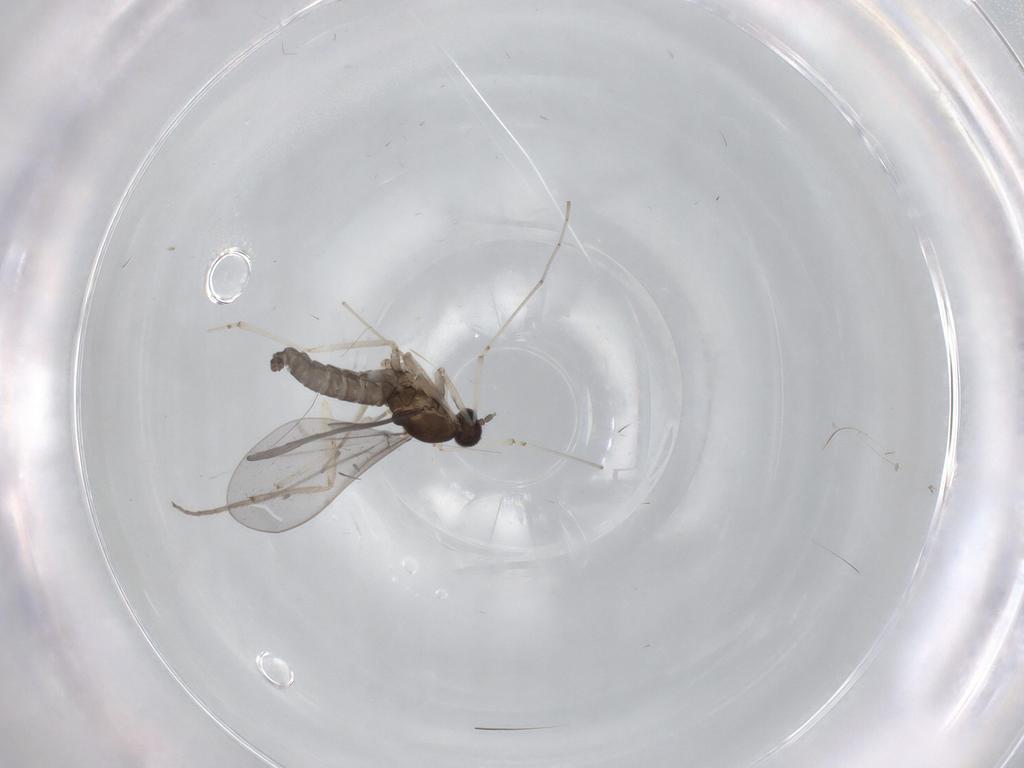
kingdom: Animalia
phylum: Arthropoda
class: Insecta
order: Diptera
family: Cecidomyiidae
